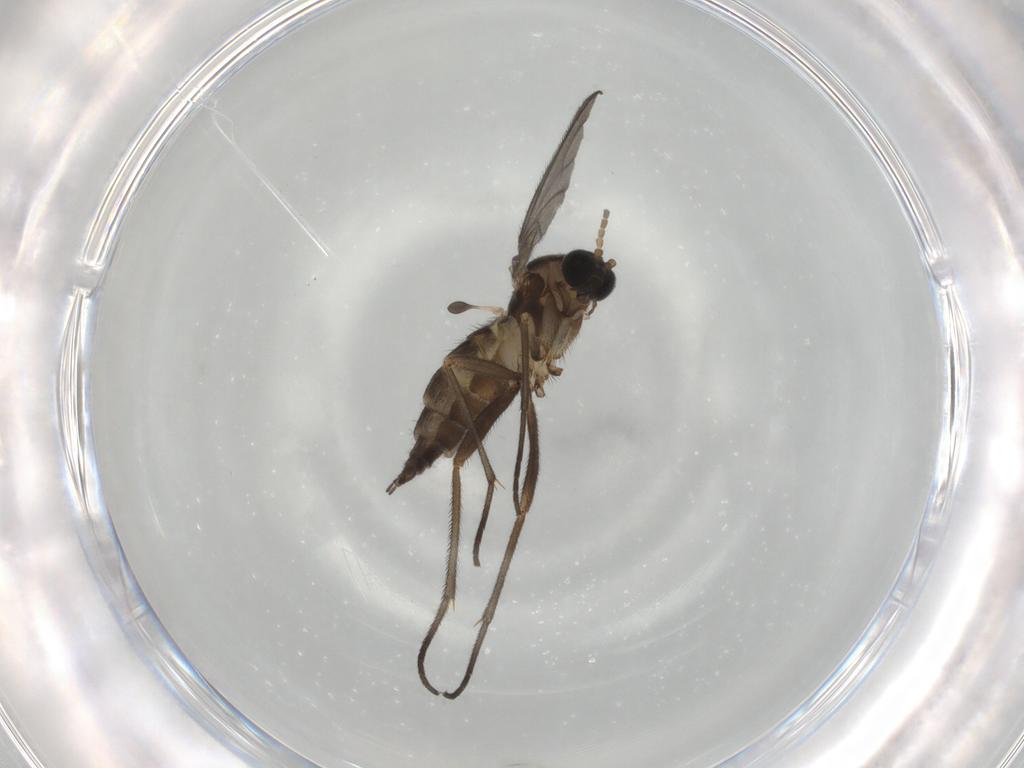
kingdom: Animalia
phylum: Arthropoda
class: Insecta
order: Diptera
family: Sciaridae
